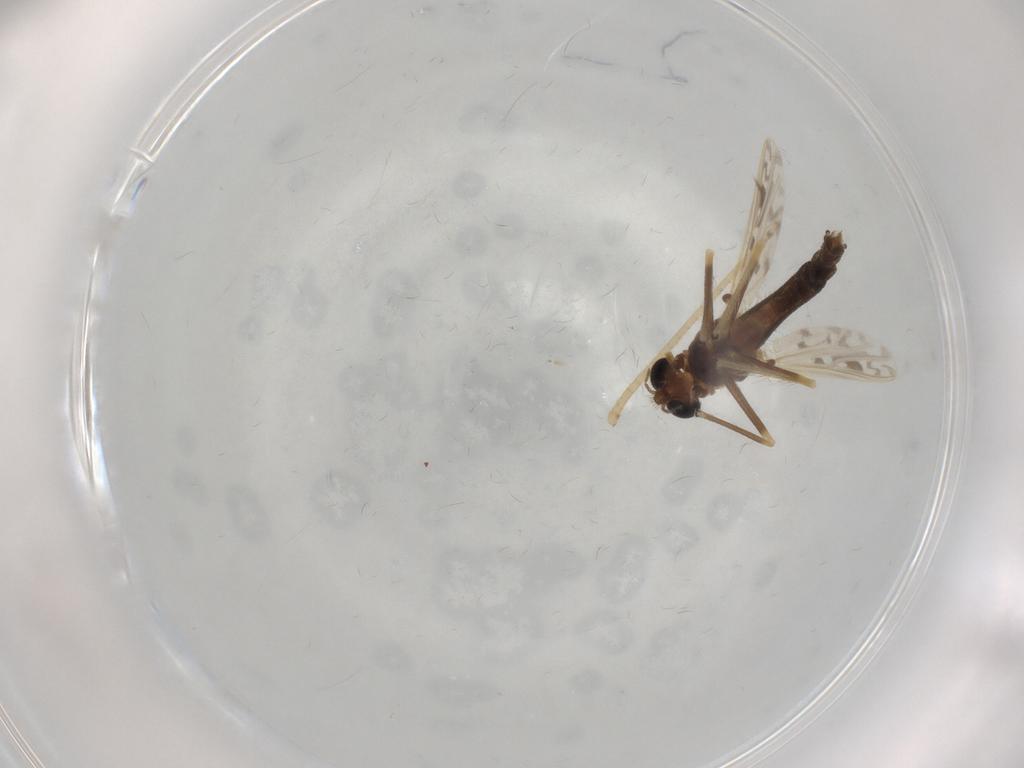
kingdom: Animalia
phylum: Arthropoda
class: Insecta
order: Diptera
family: Chironomidae
